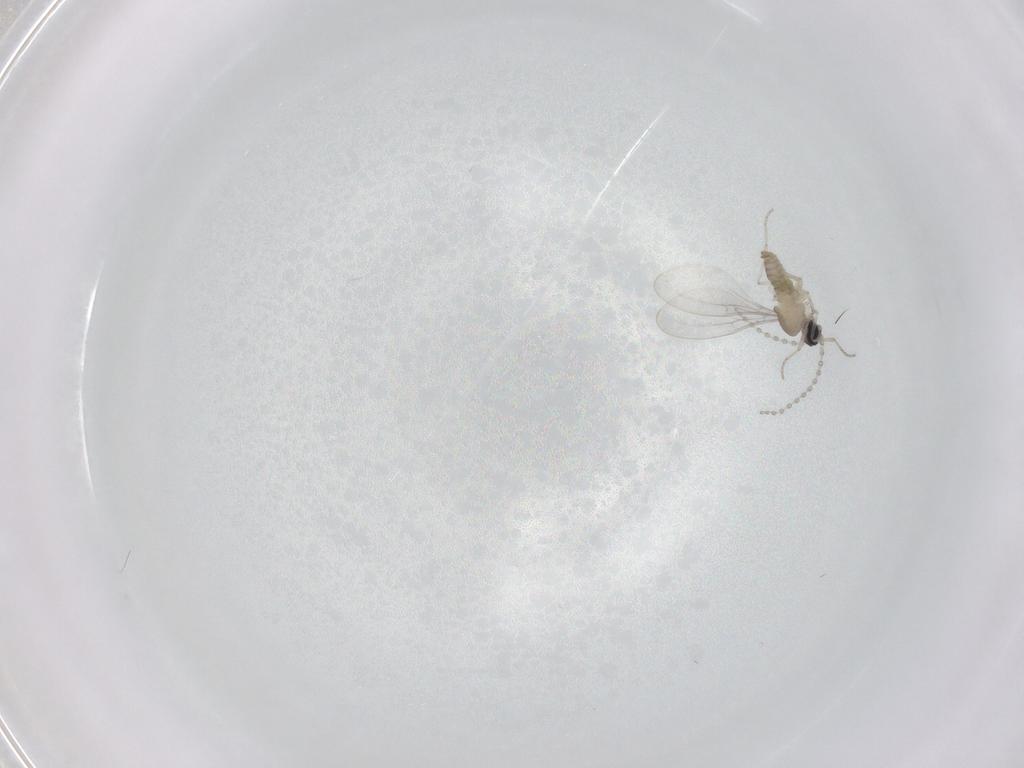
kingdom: Animalia
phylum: Arthropoda
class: Insecta
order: Diptera
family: Cecidomyiidae
